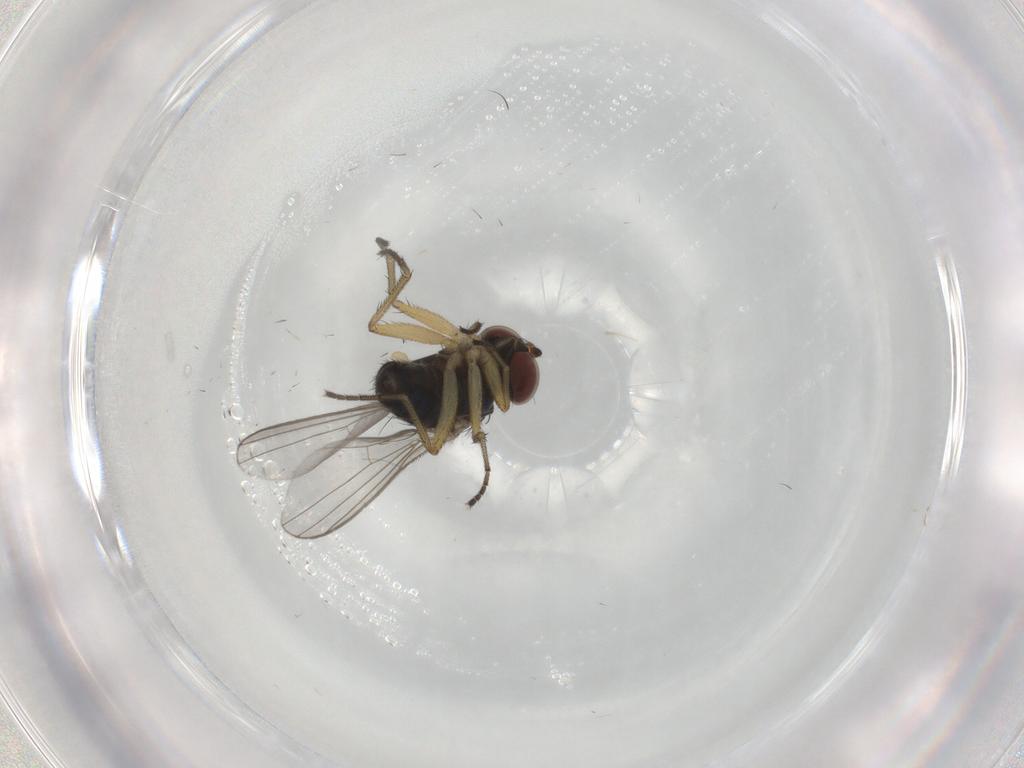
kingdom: Animalia
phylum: Arthropoda
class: Insecta
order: Diptera
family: Dolichopodidae
